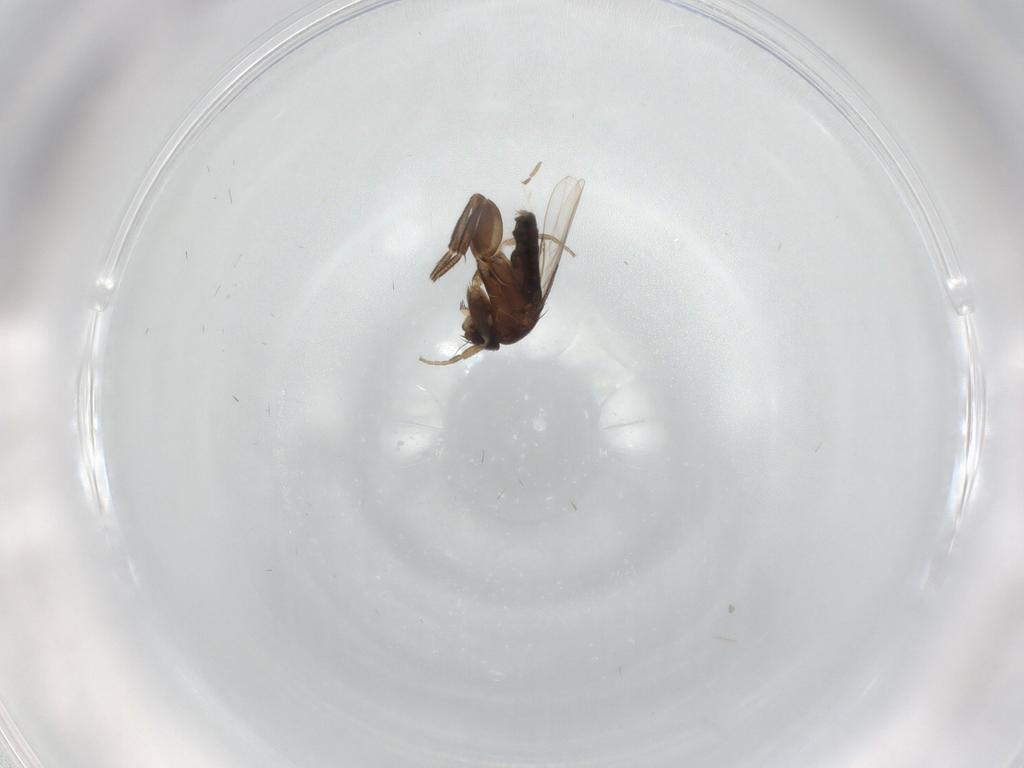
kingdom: Animalia
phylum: Arthropoda
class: Insecta
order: Diptera
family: Phoridae
